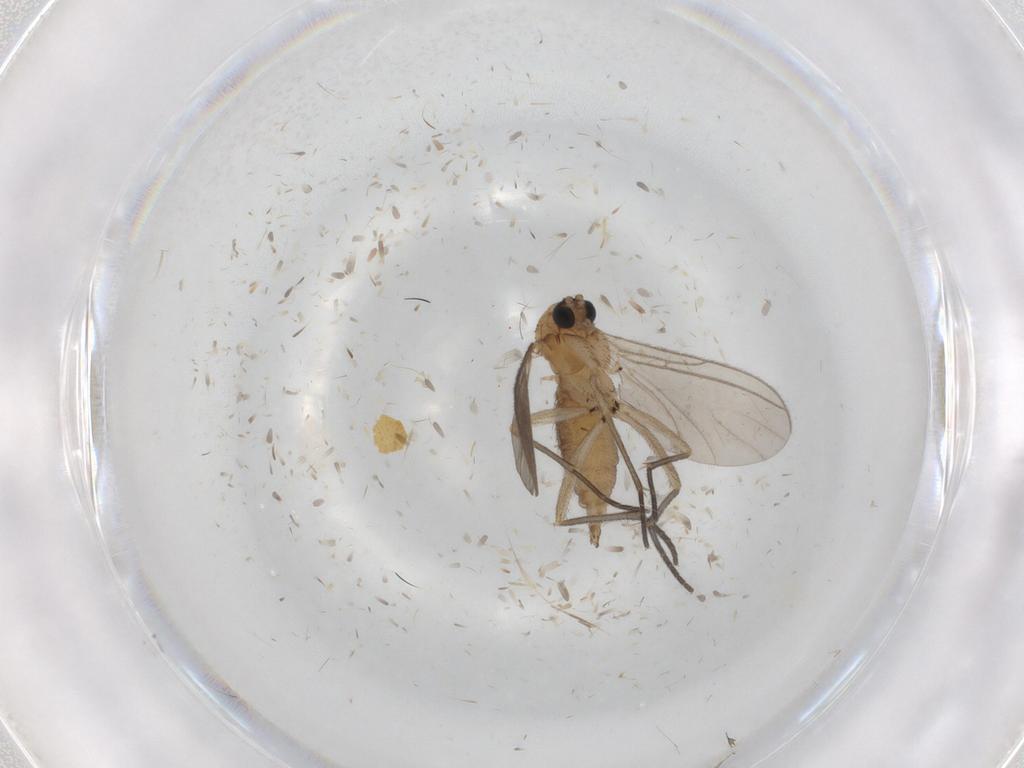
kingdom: Animalia
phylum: Arthropoda
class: Insecta
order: Diptera
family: Sciaridae
